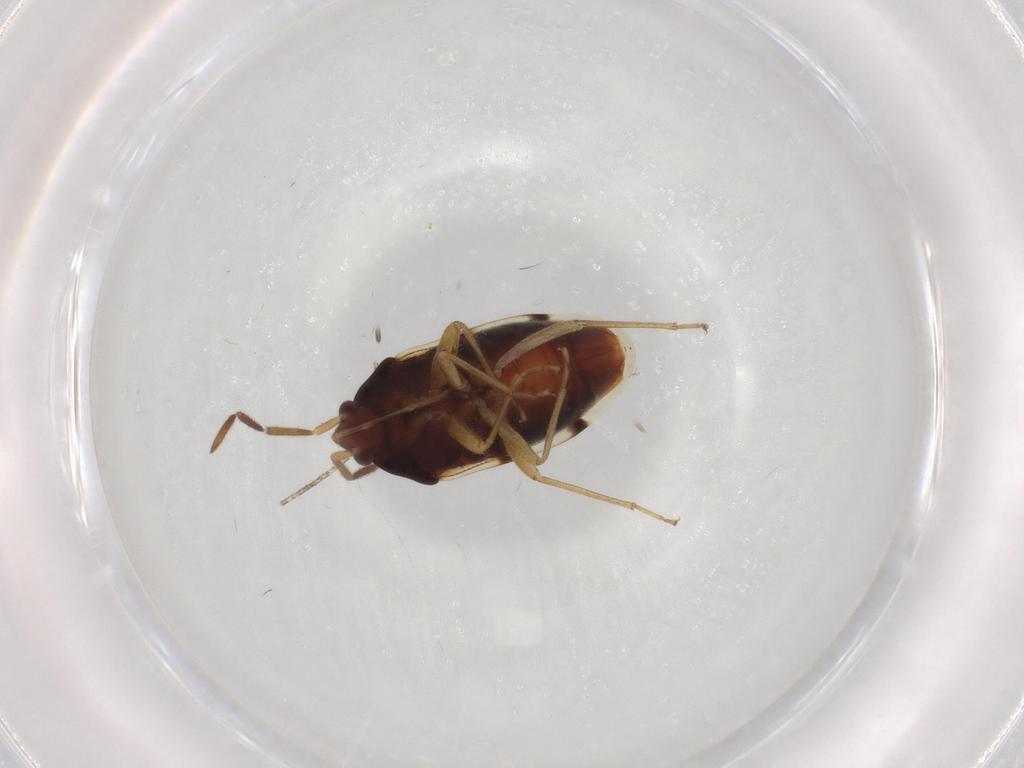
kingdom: Animalia
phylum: Arthropoda
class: Insecta
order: Hemiptera
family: Rhyparochromidae
